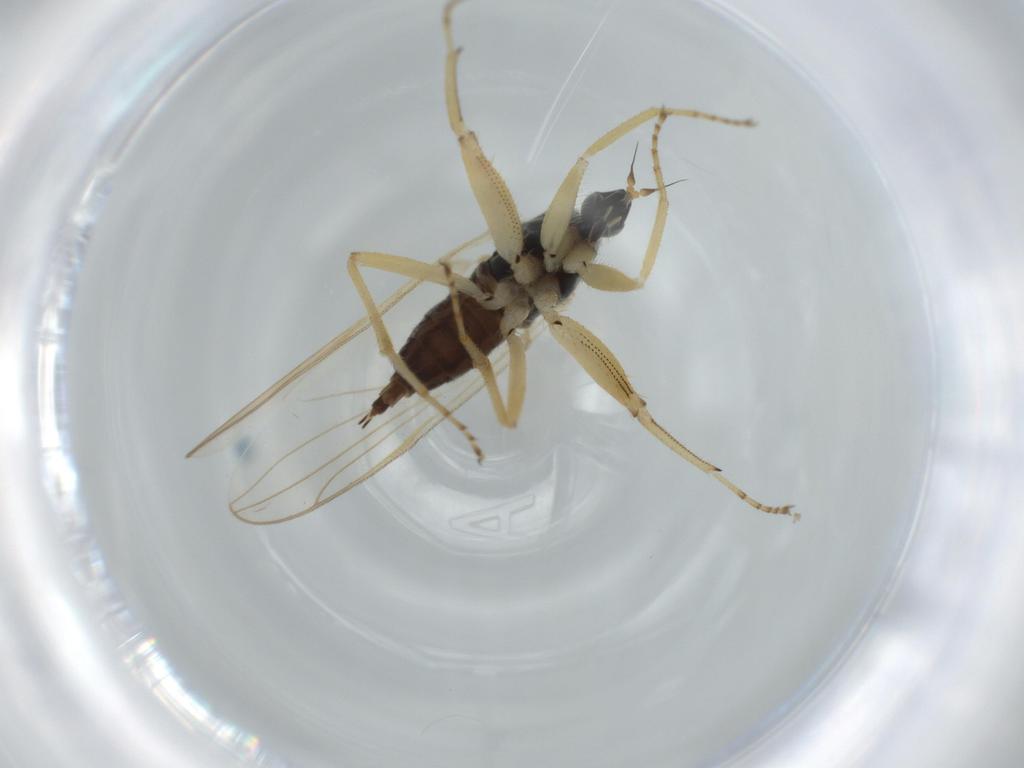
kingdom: Animalia
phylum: Arthropoda
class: Insecta
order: Diptera
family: Hybotidae
